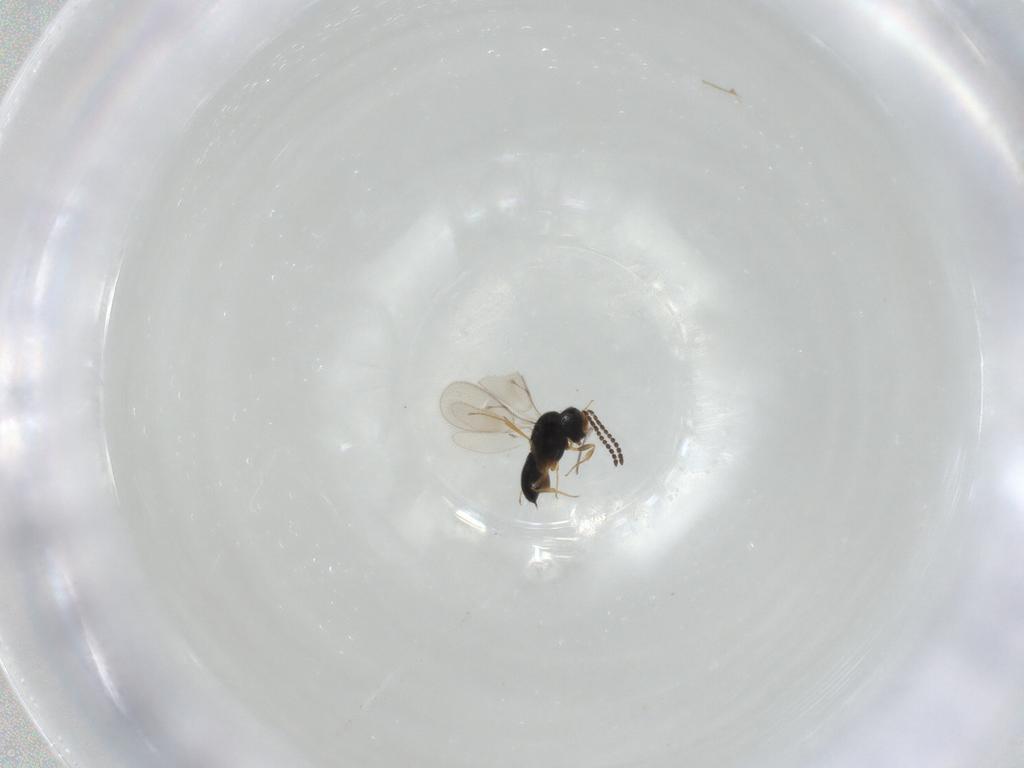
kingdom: Animalia
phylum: Arthropoda
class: Insecta
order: Hymenoptera
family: Scelionidae
